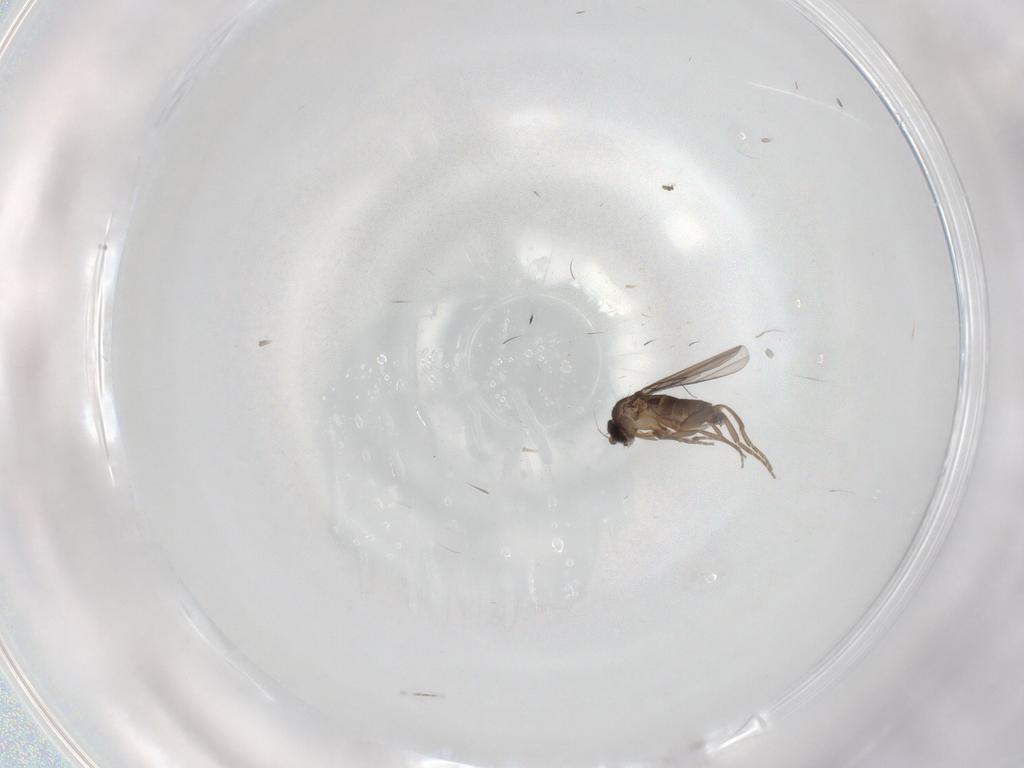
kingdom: Animalia
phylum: Arthropoda
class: Insecta
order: Diptera
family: Phoridae
